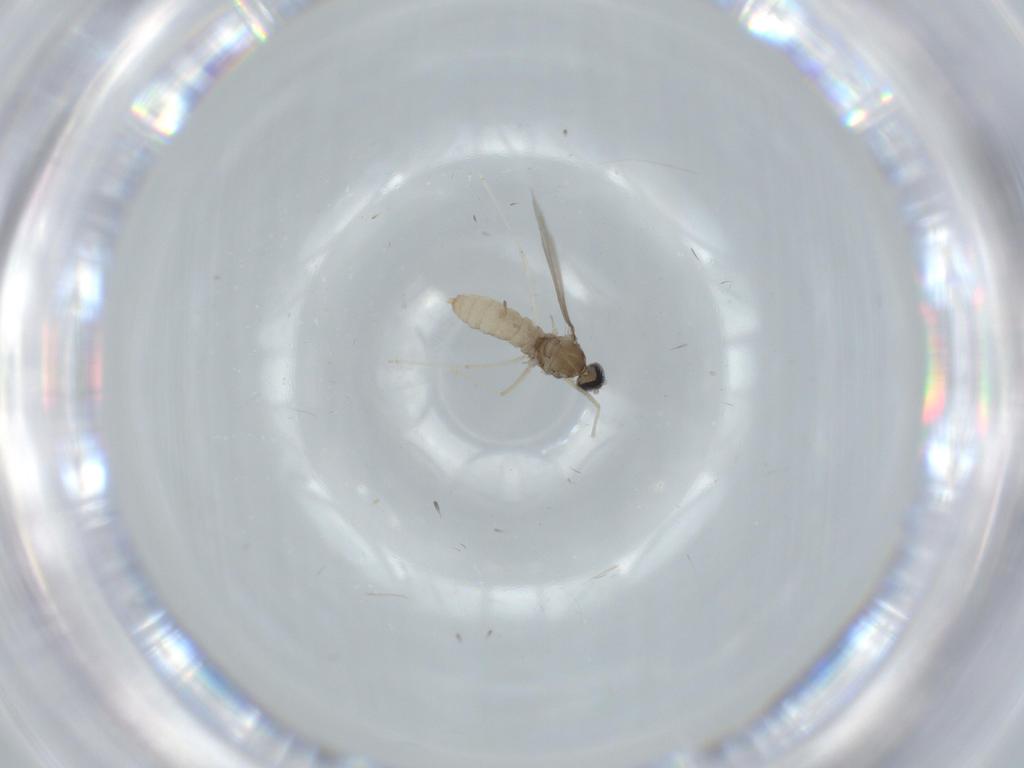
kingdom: Animalia
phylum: Arthropoda
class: Insecta
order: Diptera
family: Cecidomyiidae
